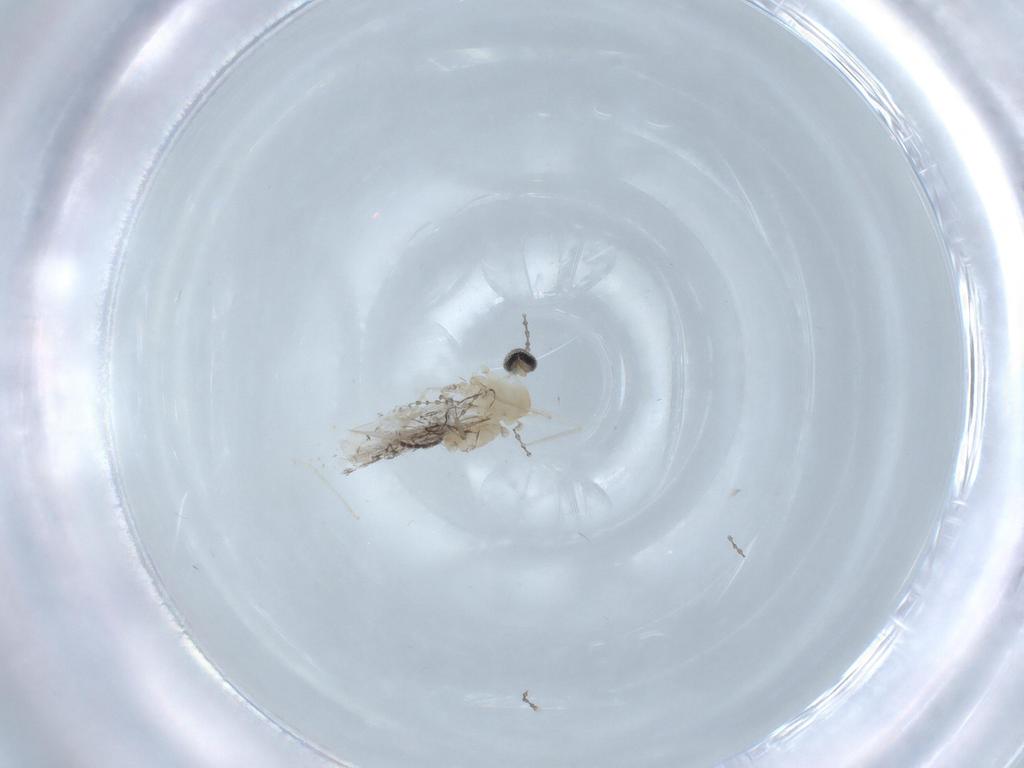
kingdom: Animalia
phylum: Arthropoda
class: Insecta
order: Diptera
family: Cecidomyiidae
